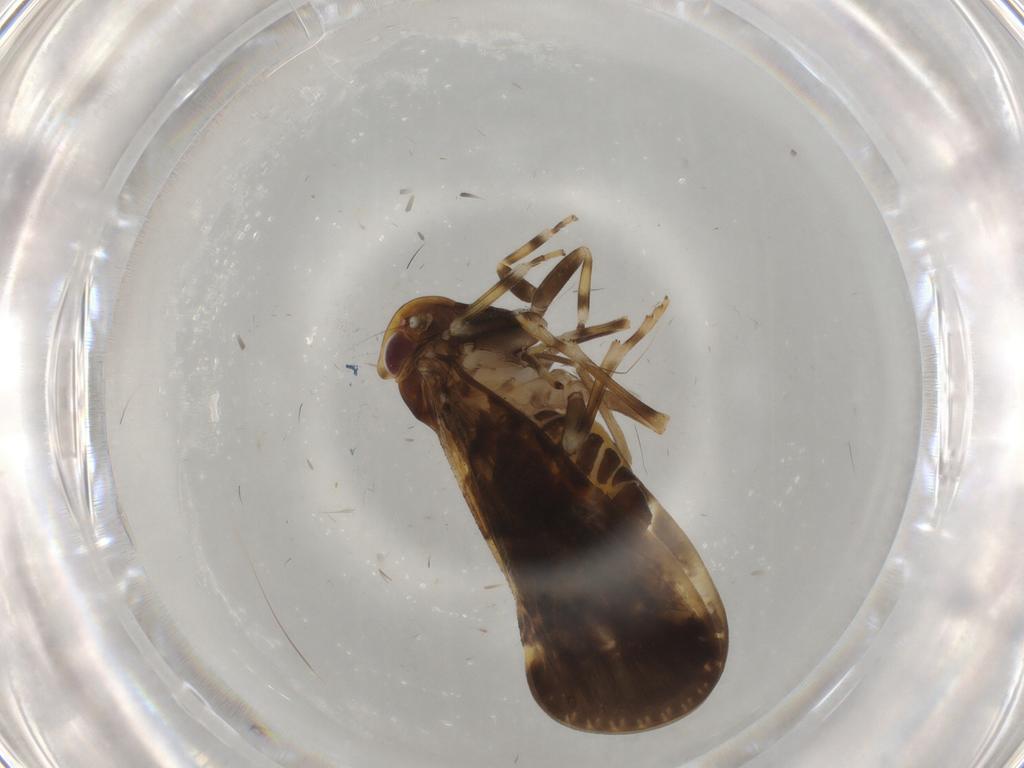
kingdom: Animalia
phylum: Arthropoda
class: Insecta
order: Hemiptera
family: Cixiidae
